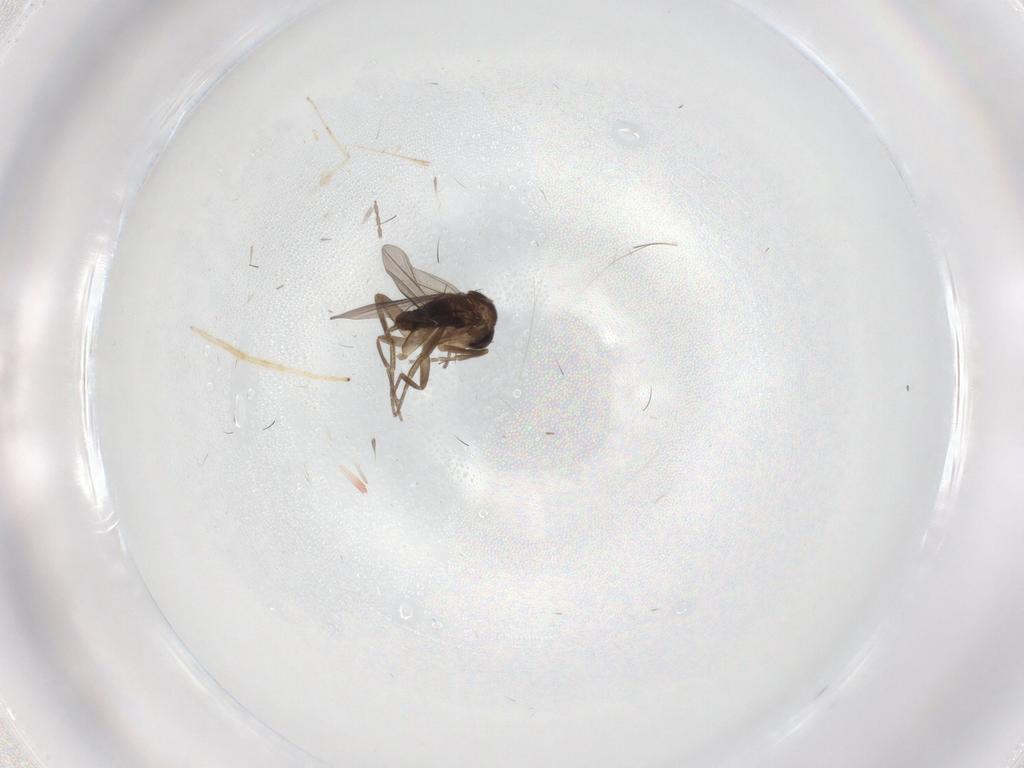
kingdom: Animalia
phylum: Arthropoda
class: Insecta
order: Diptera
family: Phoridae
